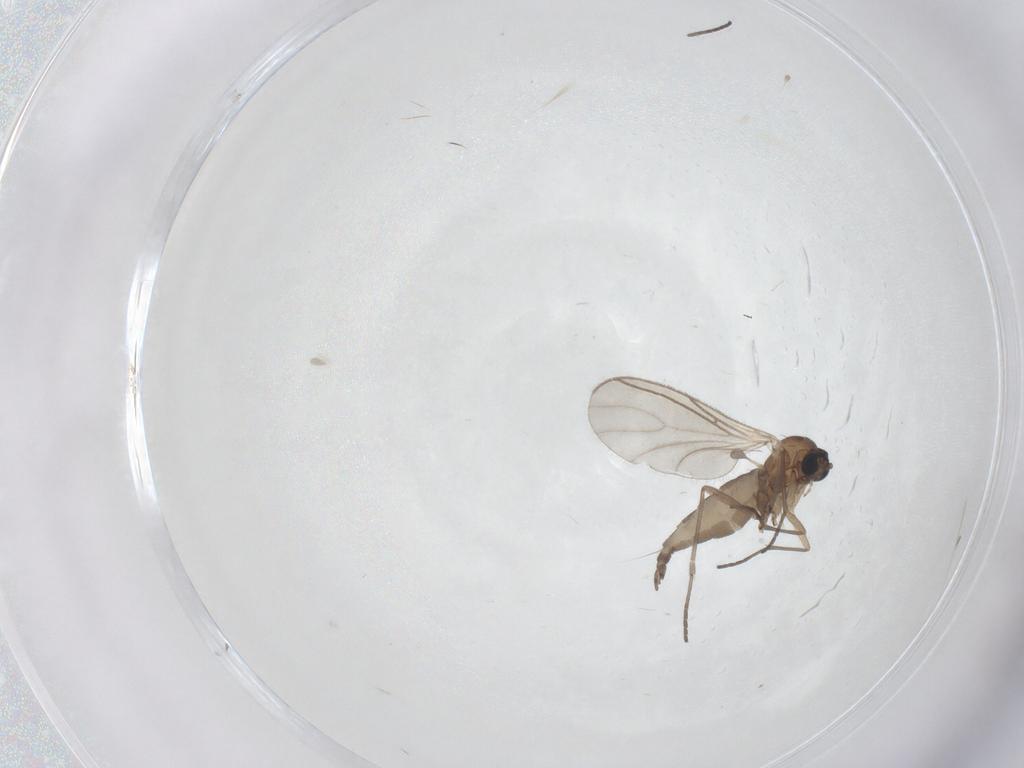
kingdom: Animalia
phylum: Arthropoda
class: Insecta
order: Diptera
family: Sciaridae
